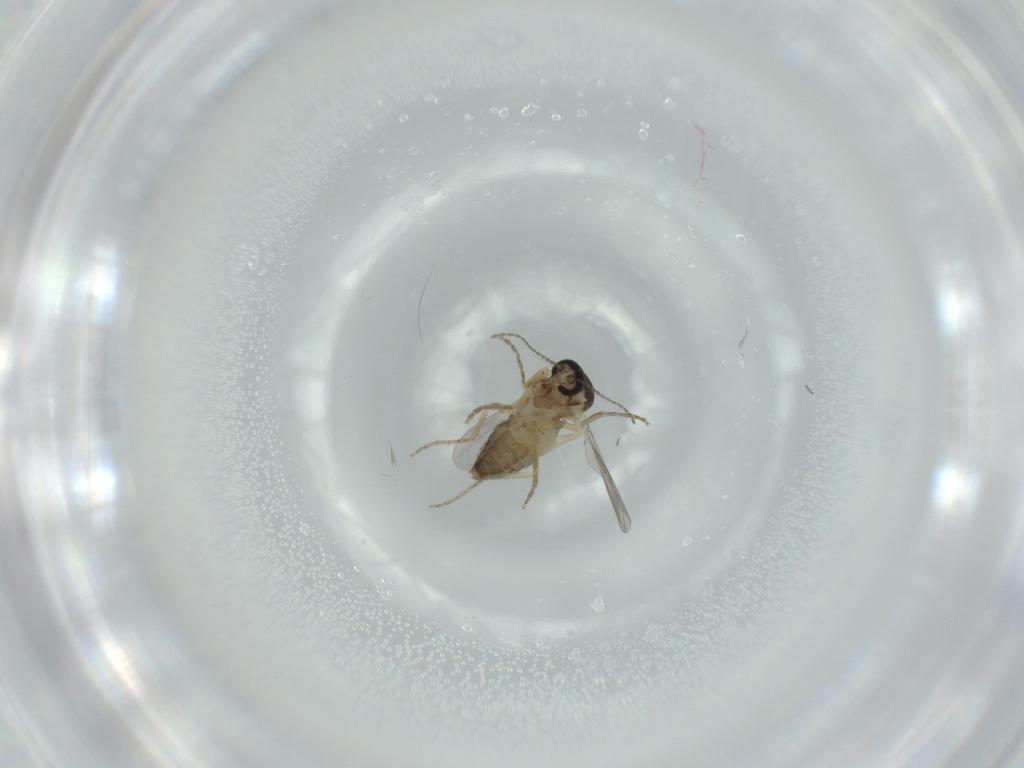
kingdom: Animalia
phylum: Arthropoda
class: Insecta
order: Diptera
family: Ceratopogonidae
